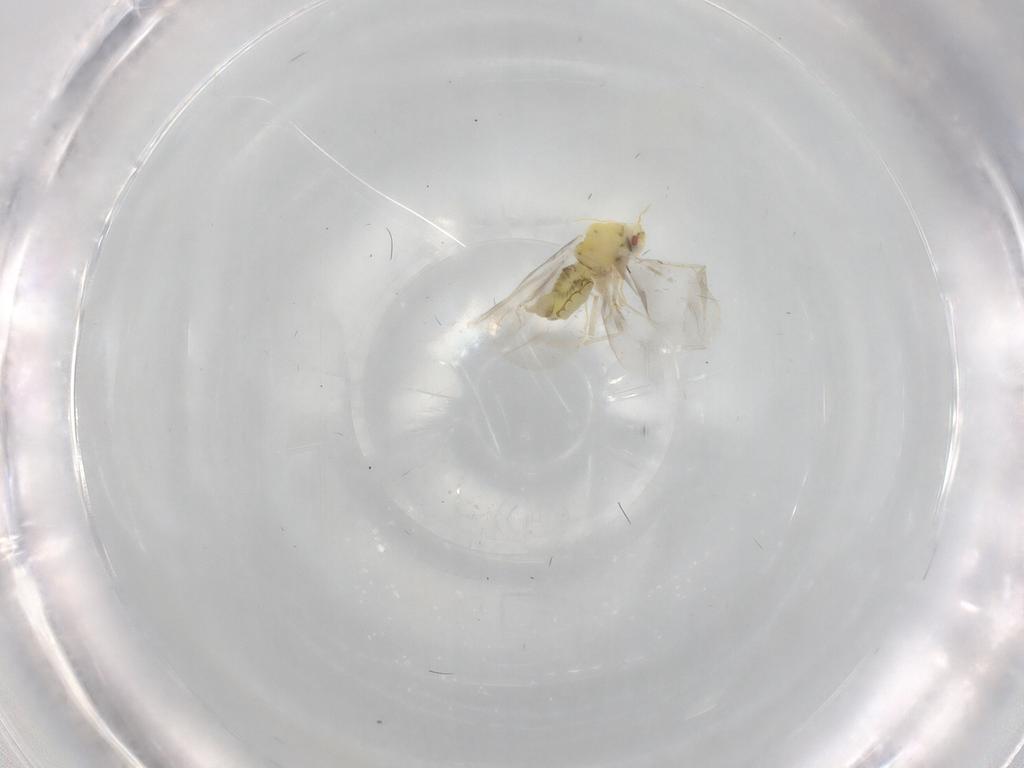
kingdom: Animalia
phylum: Arthropoda
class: Insecta
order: Hemiptera
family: Aleyrodidae
